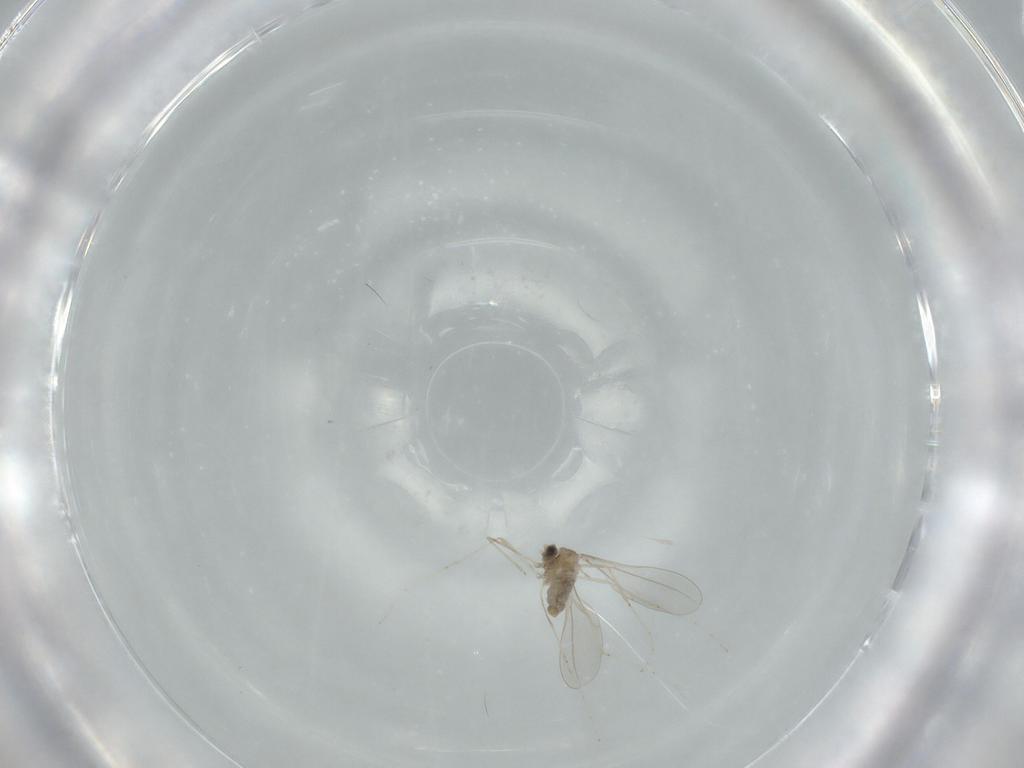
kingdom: Animalia
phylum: Arthropoda
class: Insecta
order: Diptera
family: Cecidomyiidae
